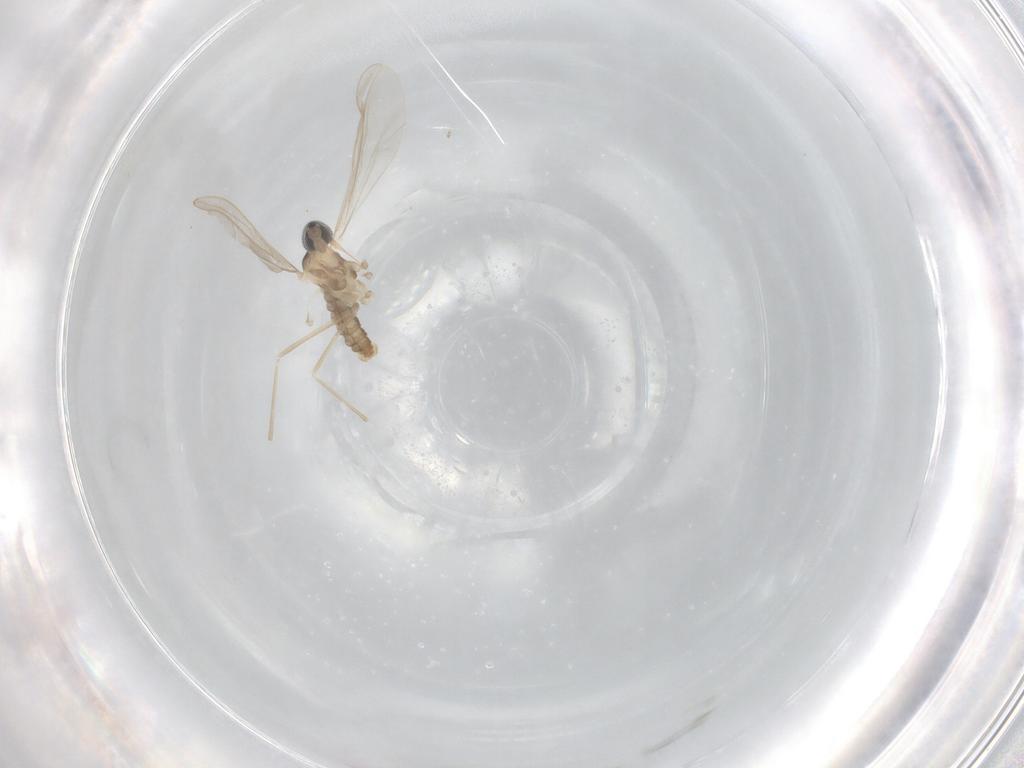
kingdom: Animalia
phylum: Arthropoda
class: Insecta
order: Diptera
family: Cecidomyiidae
